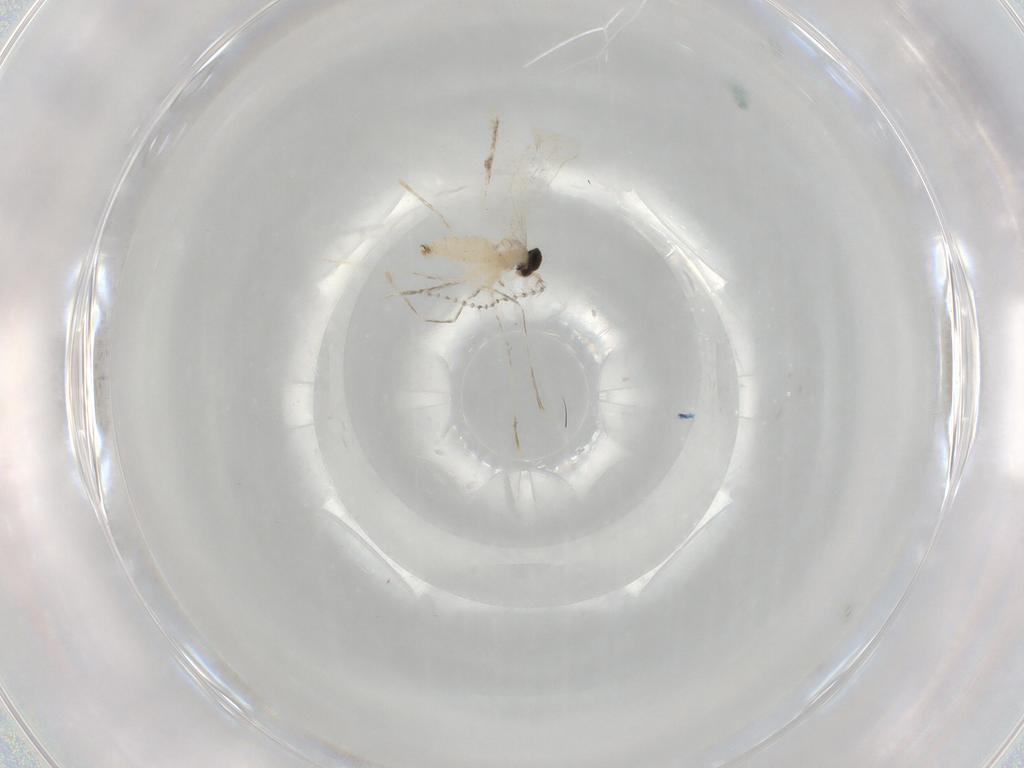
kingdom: Animalia
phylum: Arthropoda
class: Insecta
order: Diptera
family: Cecidomyiidae
